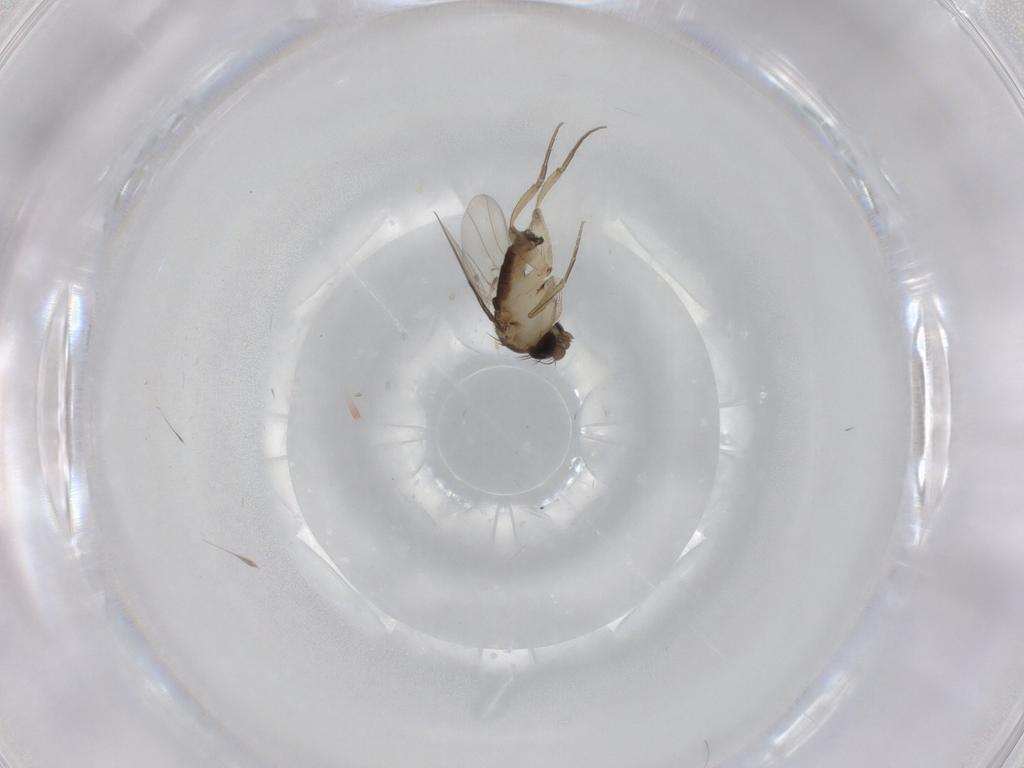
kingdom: Animalia
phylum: Arthropoda
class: Insecta
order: Diptera
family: Phoridae
